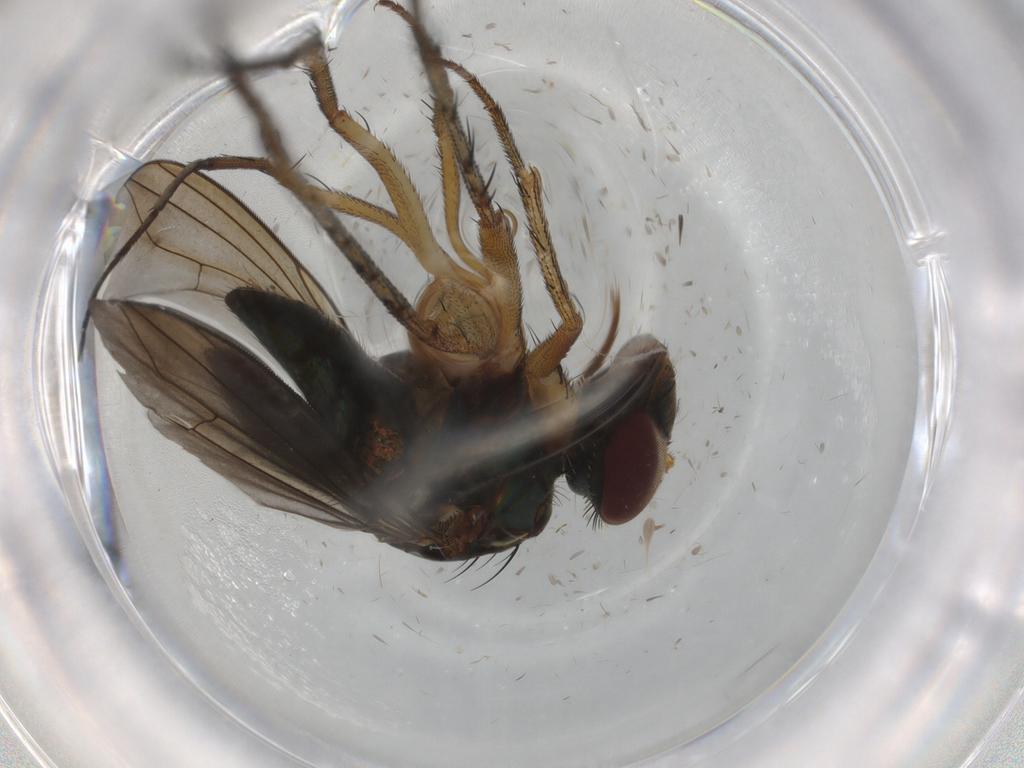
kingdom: Animalia
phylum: Arthropoda
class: Insecta
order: Diptera
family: Dolichopodidae
